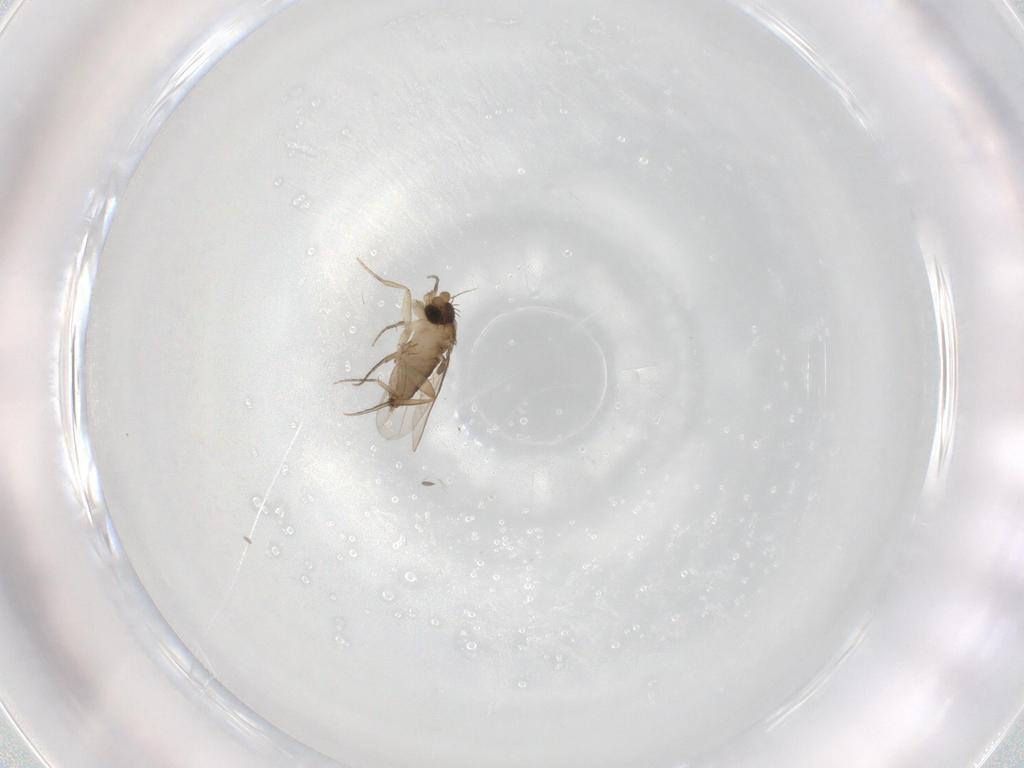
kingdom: Animalia
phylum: Arthropoda
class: Insecta
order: Diptera
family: Phoridae
